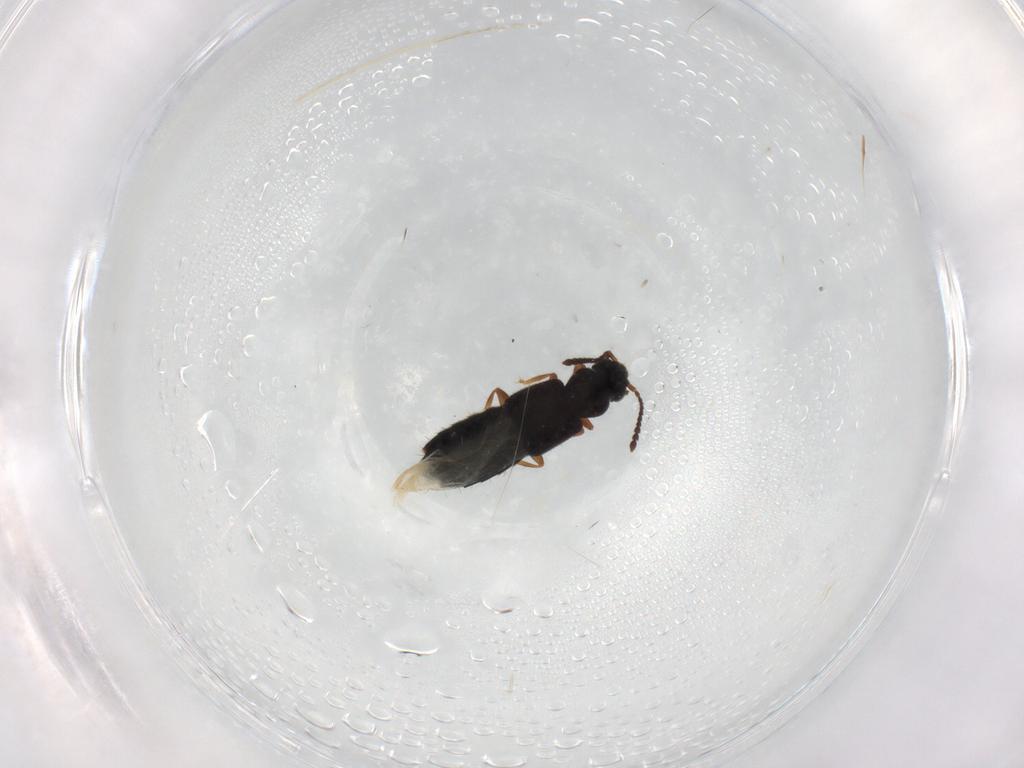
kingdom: Animalia
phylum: Arthropoda
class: Insecta
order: Coleoptera
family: Staphylinidae
